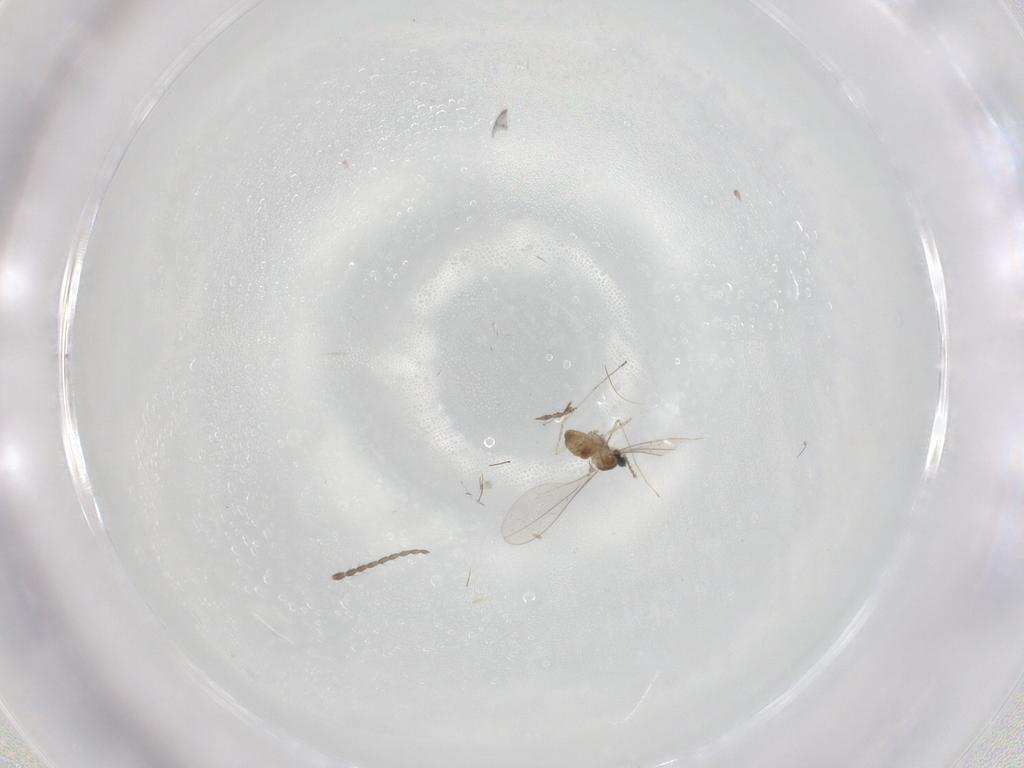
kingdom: Animalia
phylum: Arthropoda
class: Insecta
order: Diptera
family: Cecidomyiidae
